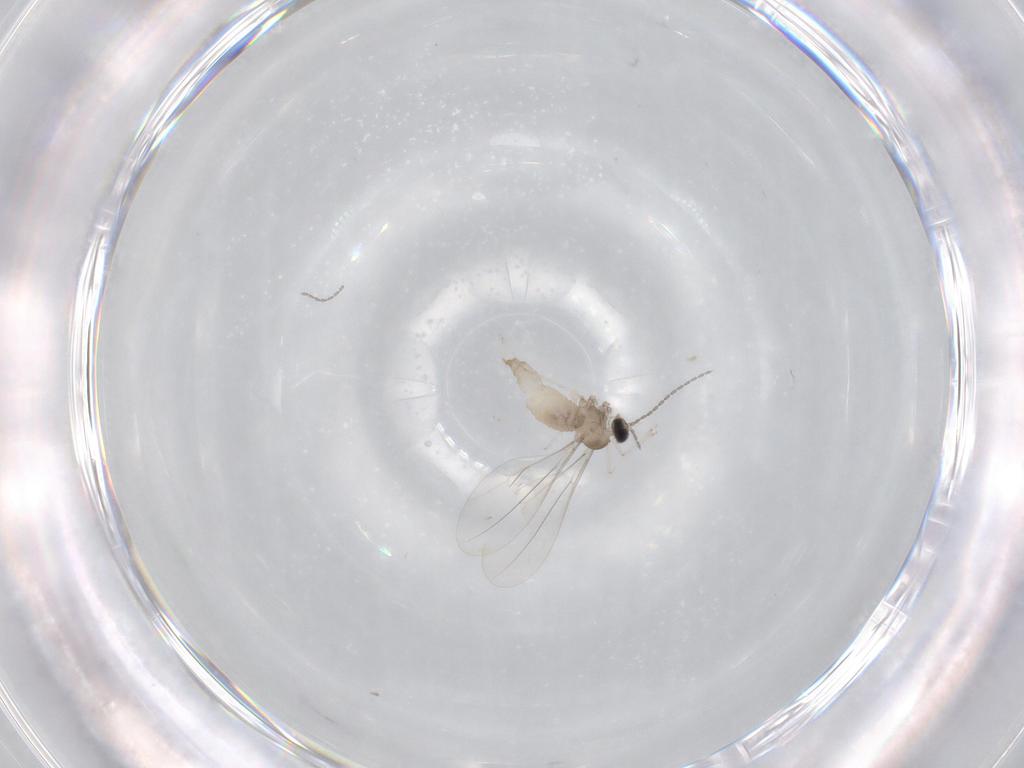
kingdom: Animalia
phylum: Arthropoda
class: Insecta
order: Diptera
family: Cecidomyiidae
